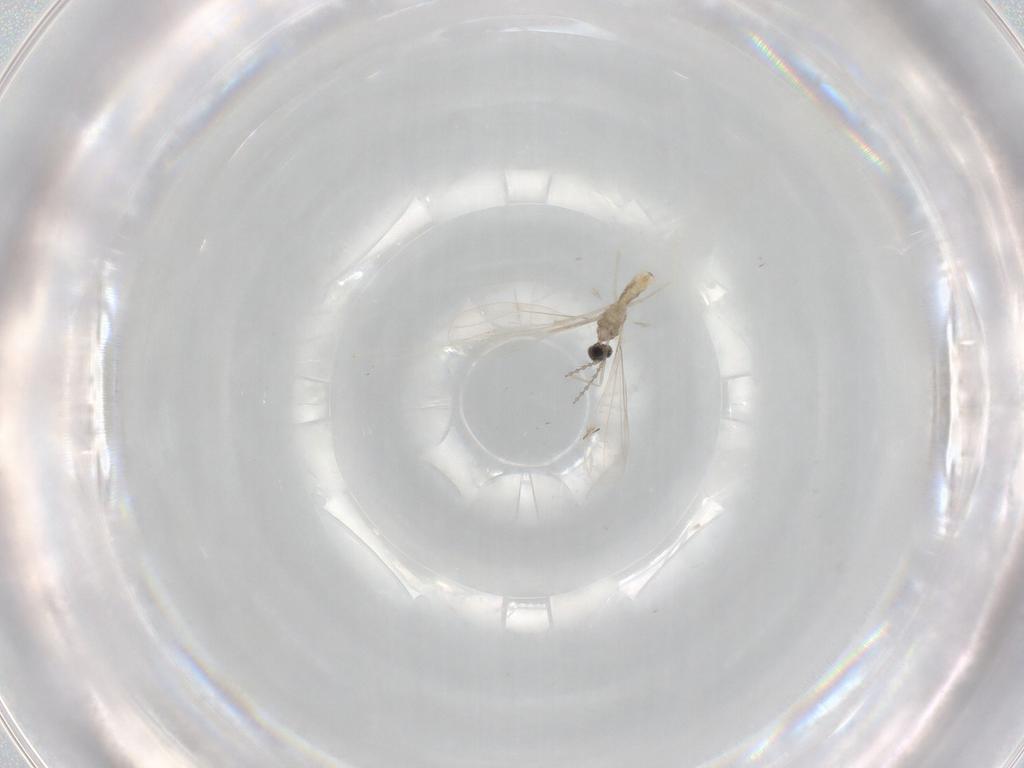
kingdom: Animalia
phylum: Arthropoda
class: Insecta
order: Diptera
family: Cecidomyiidae
